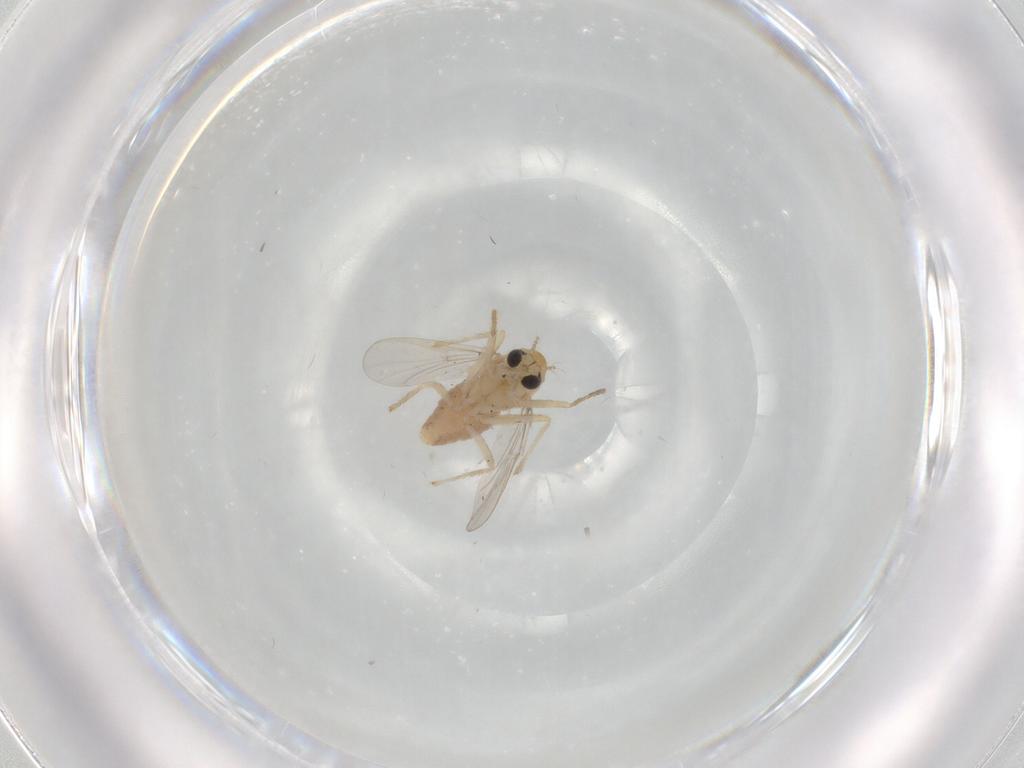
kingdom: Animalia
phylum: Arthropoda
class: Insecta
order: Diptera
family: Chironomidae
